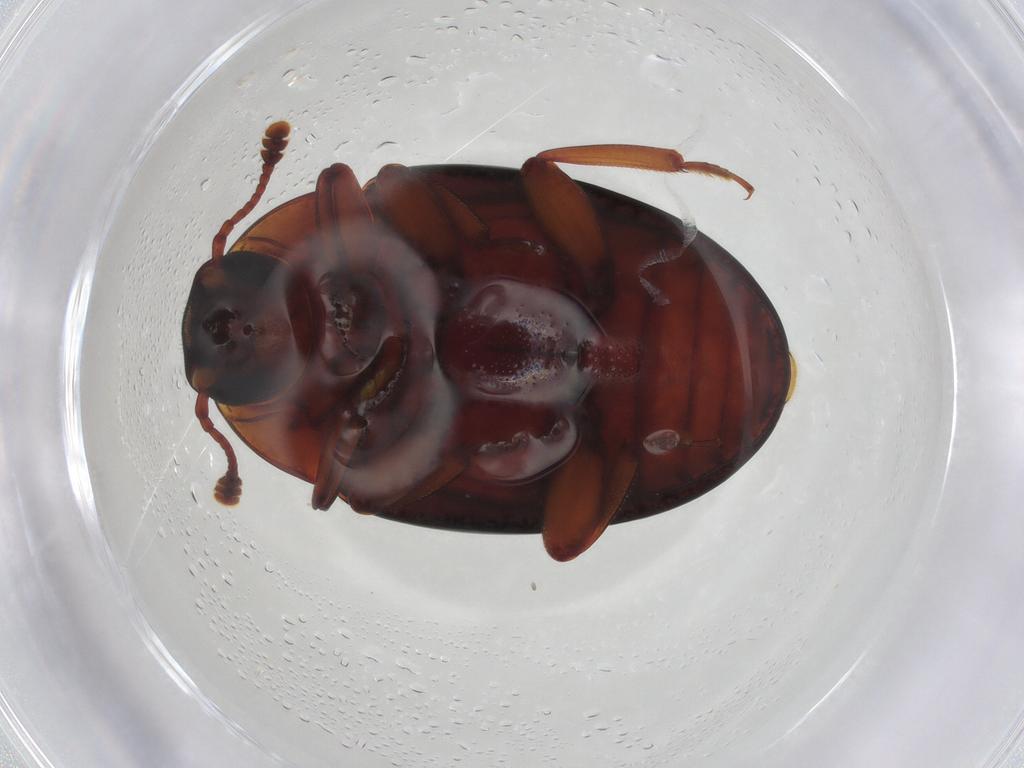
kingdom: Animalia
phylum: Arthropoda
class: Insecta
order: Coleoptera
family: Zopheridae
